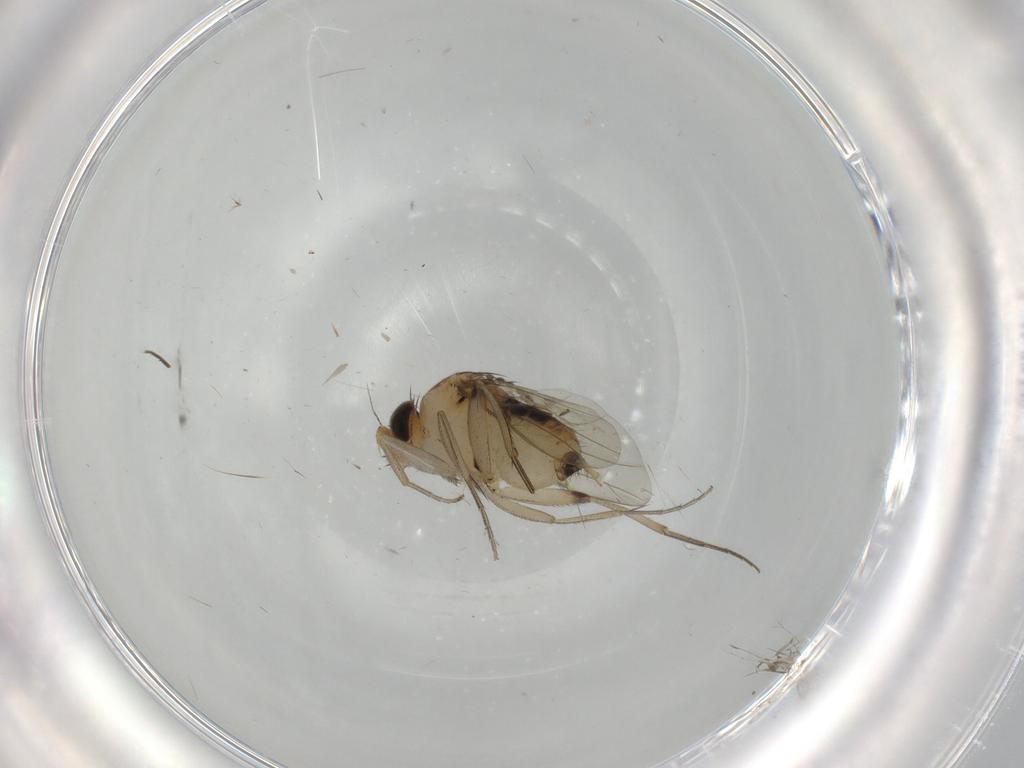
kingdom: Animalia
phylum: Arthropoda
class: Insecta
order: Diptera
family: Phoridae
